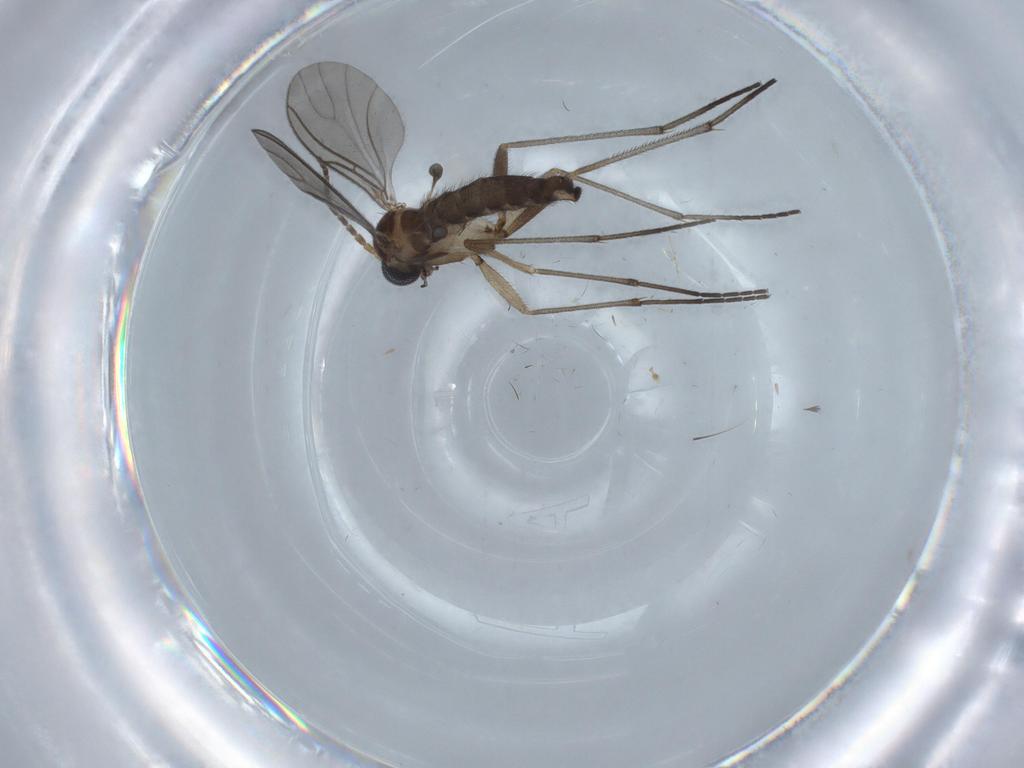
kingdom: Animalia
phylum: Arthropoda
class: Insecta
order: Diptera
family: Sciaridae
